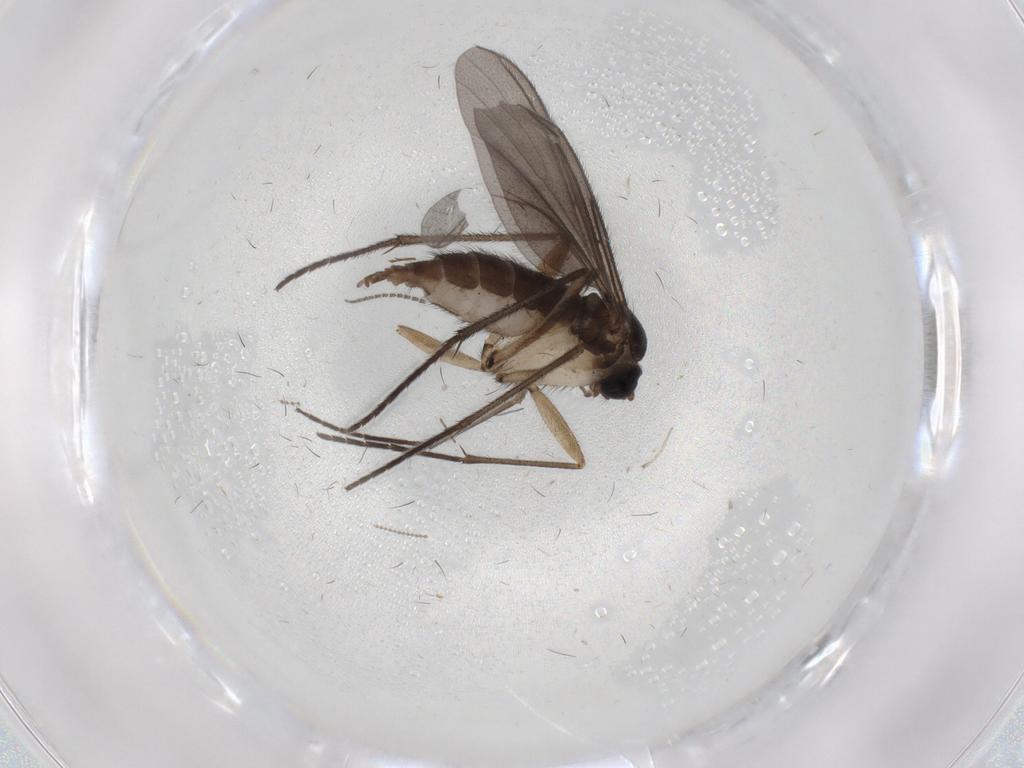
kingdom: Animalia
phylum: Arthropoda
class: Insecta
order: Diptera
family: Sciaridae
